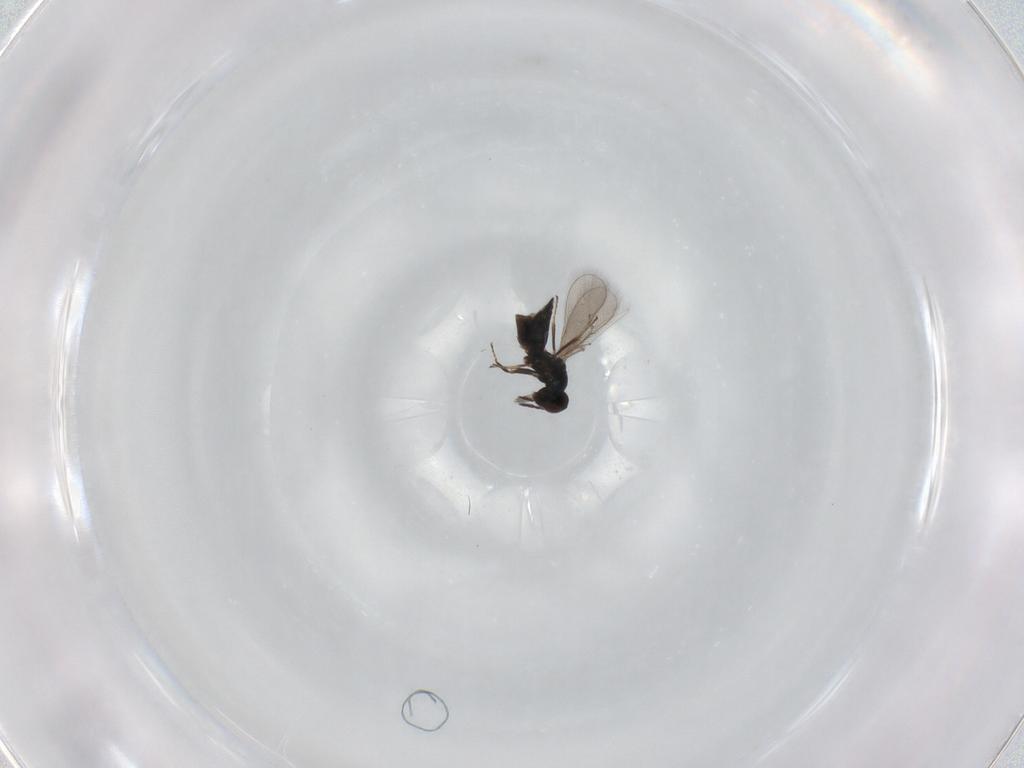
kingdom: Animalia
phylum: Arthropoda
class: Insecta
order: Hymenoptera
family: Eulophidae
